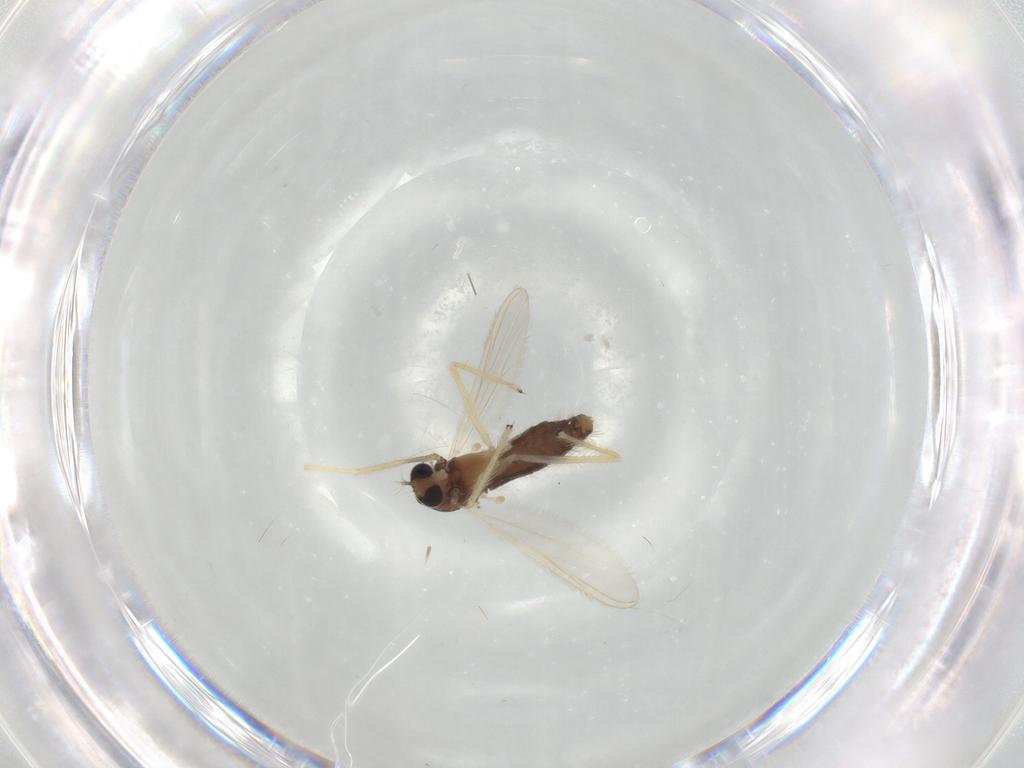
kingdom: Animalia
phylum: Arthropoda
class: Insecta
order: Diptera
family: Chironomidae
